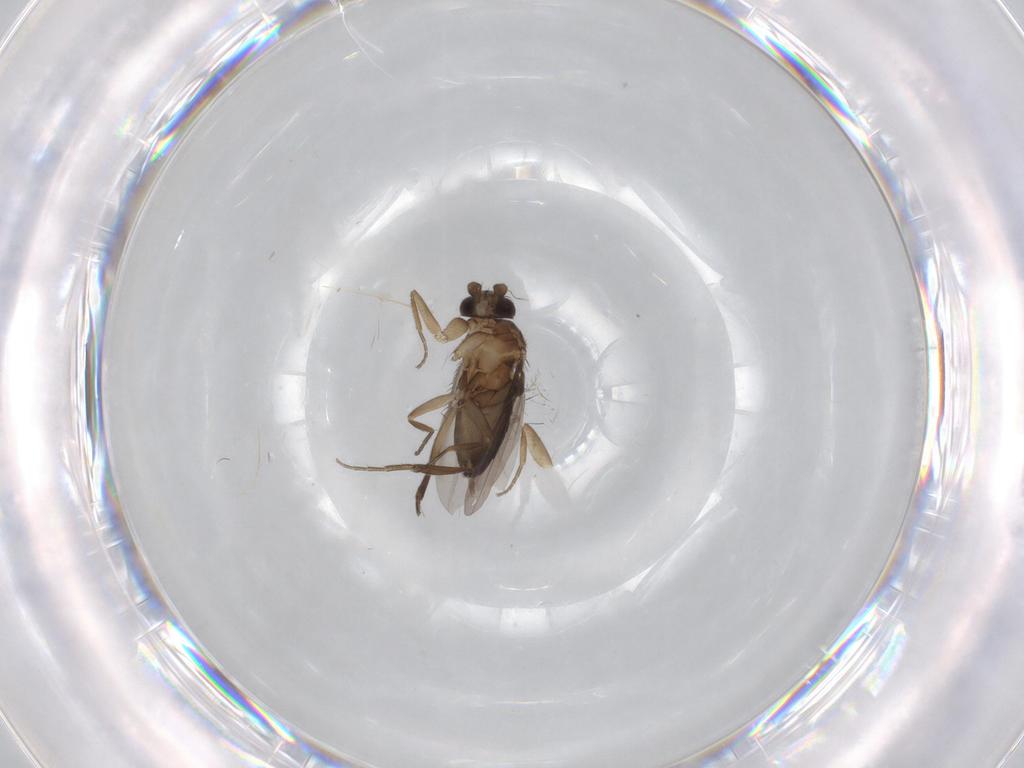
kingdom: Animalia
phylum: Arthropoda
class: Insecta
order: Diptera
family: Phoridae
